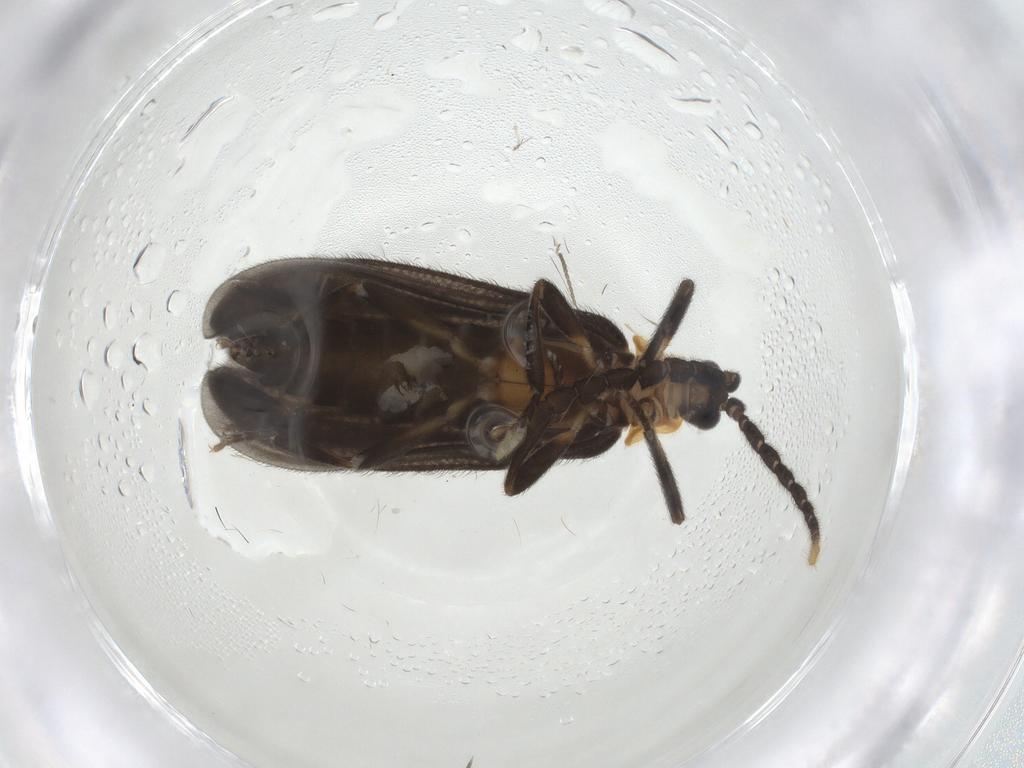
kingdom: Animalia
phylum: Arthropoda
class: Insecta
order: Coleoptera
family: Lycidae
